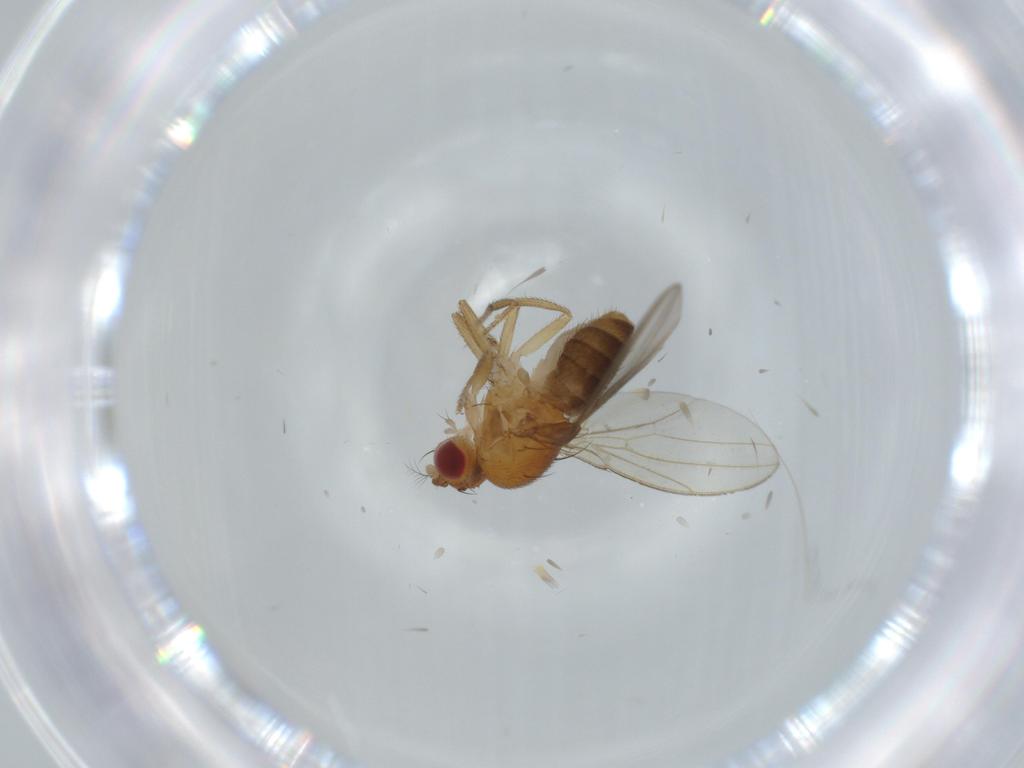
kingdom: Animalia
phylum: Arthropoda
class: Insecta
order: Diptera
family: Drosophilidae
